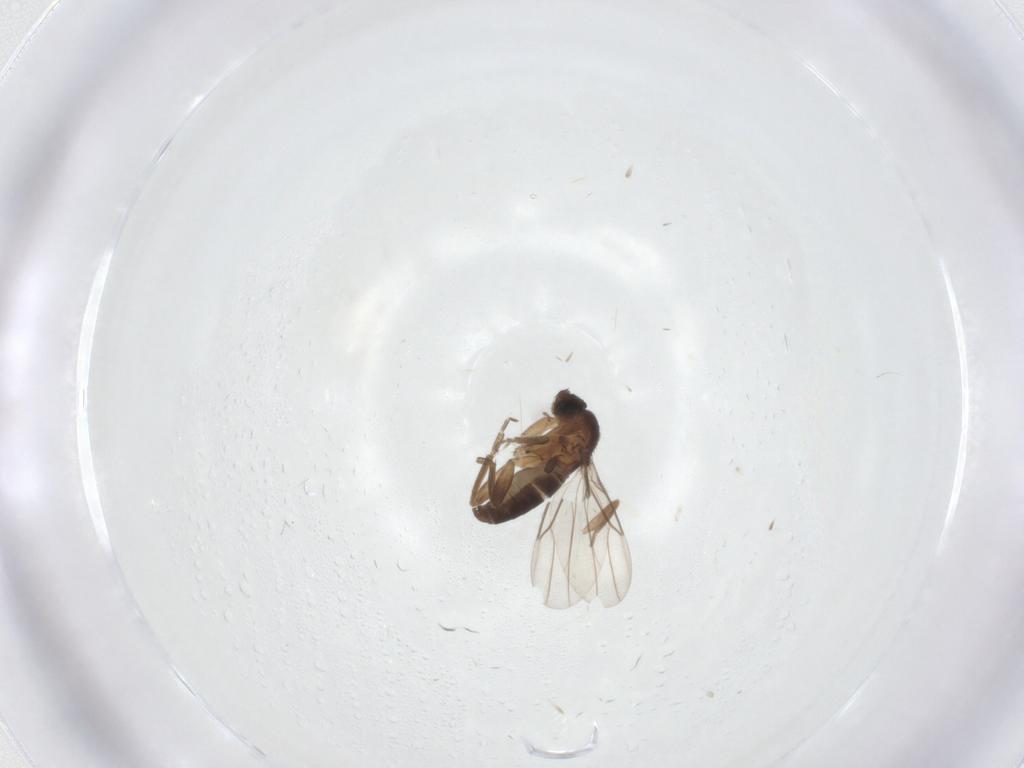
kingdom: Animalia
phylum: Arthropoda
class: Insecta
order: Diptera
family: Phoridae
